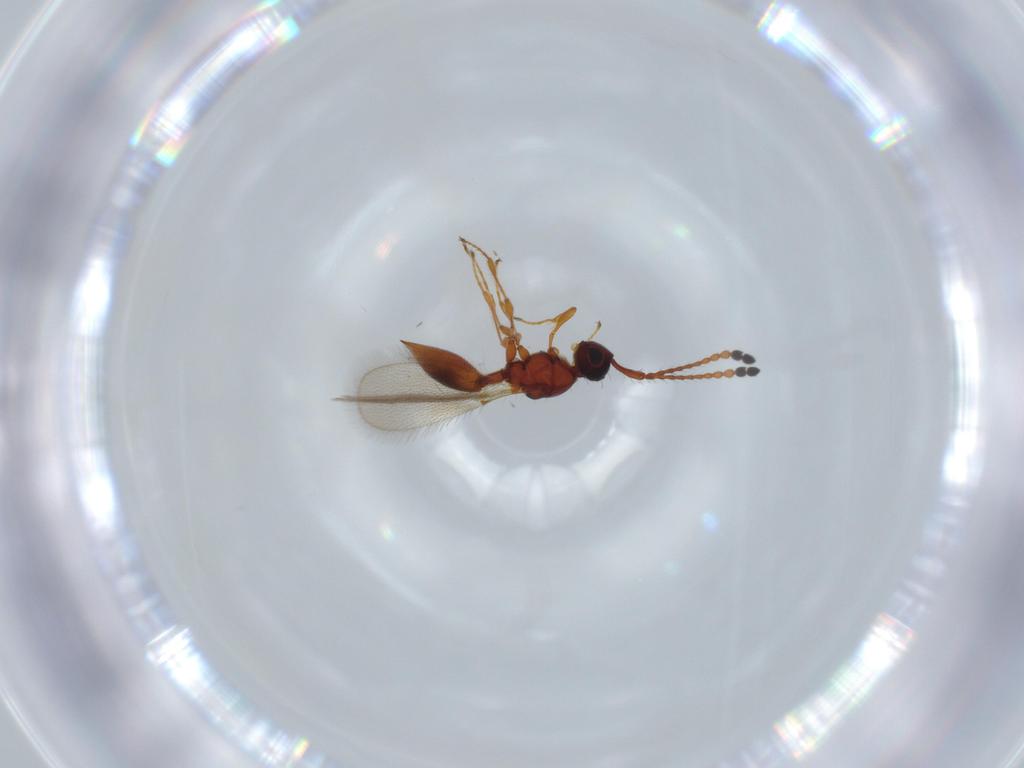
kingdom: Animalia
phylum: Arthropoda
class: Insecta
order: Hymenoptera
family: Diapriidae
